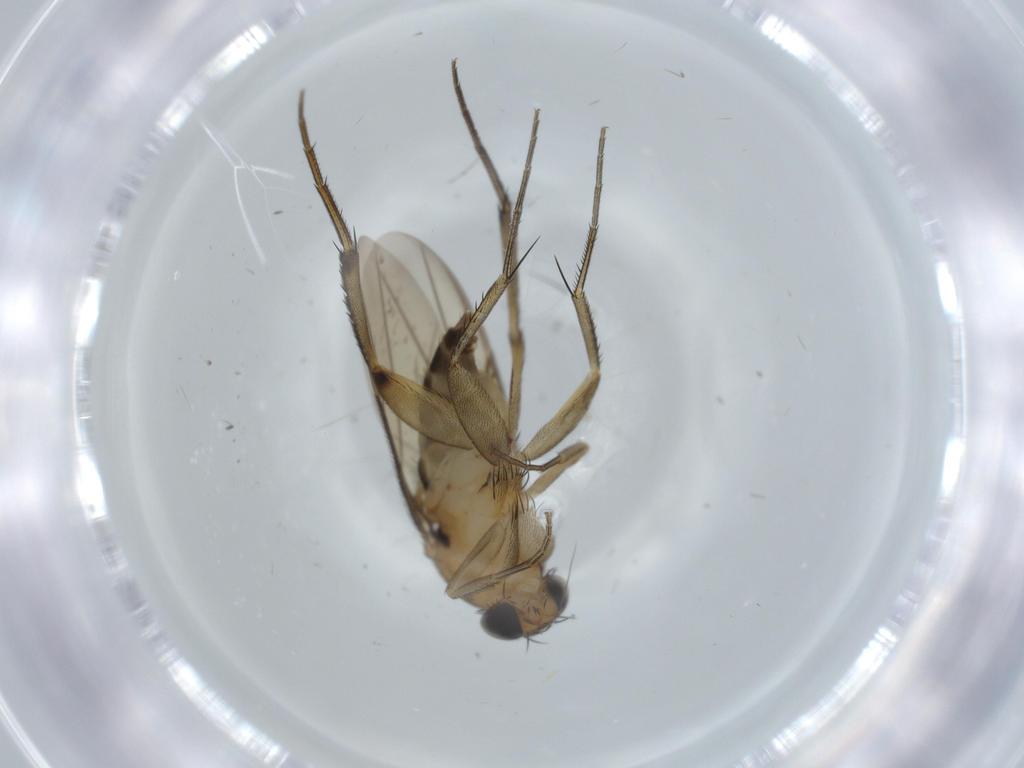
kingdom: Animalia
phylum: Arthropoda
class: Insecta
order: Diptera
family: Phoridae
